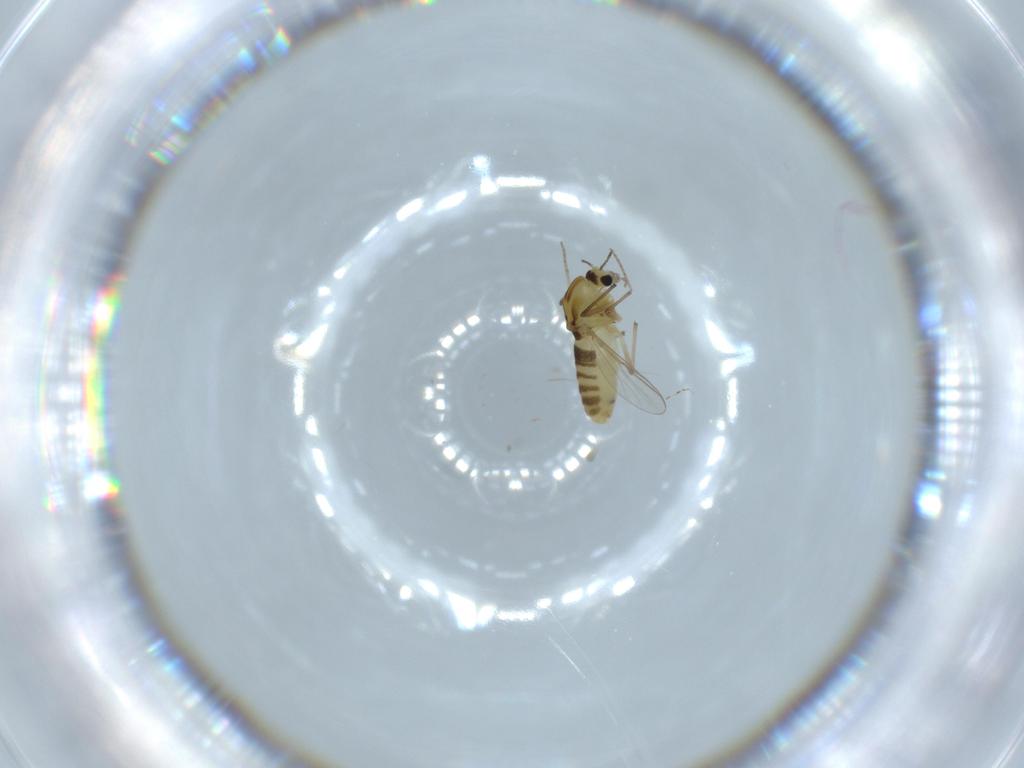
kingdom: Animalia
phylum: Arthropoda
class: Insecta
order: Diptera
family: Chironomidae
